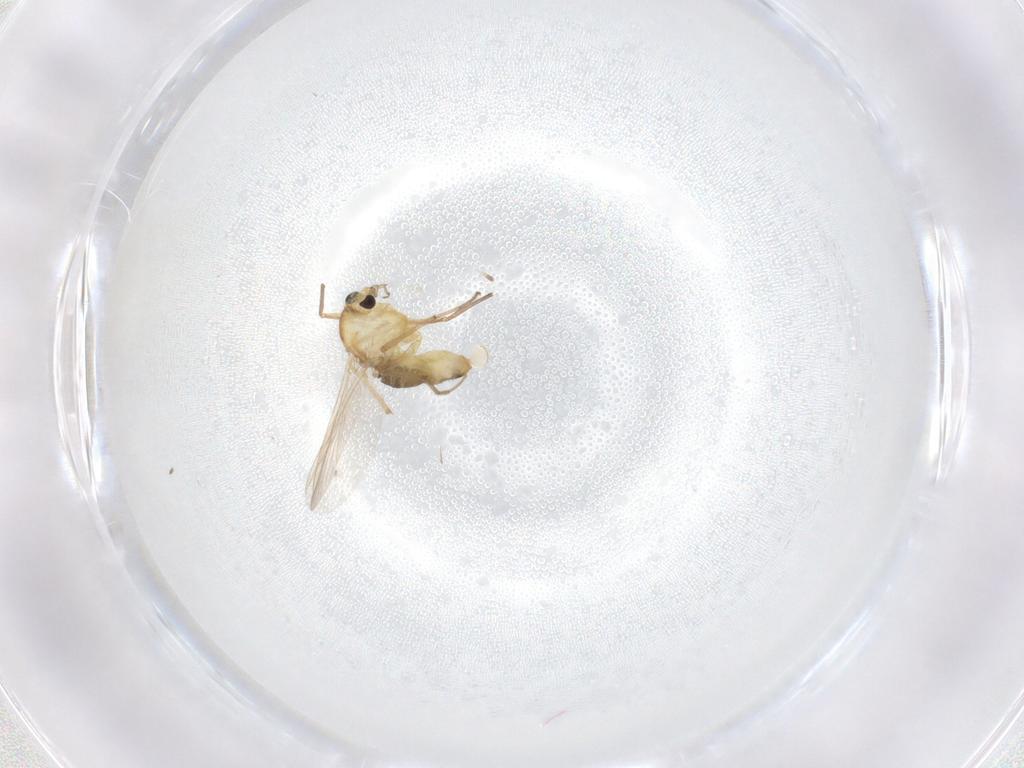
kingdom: Animalia
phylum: Arthropoda
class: Insecta
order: Diptera
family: Chironomidae
